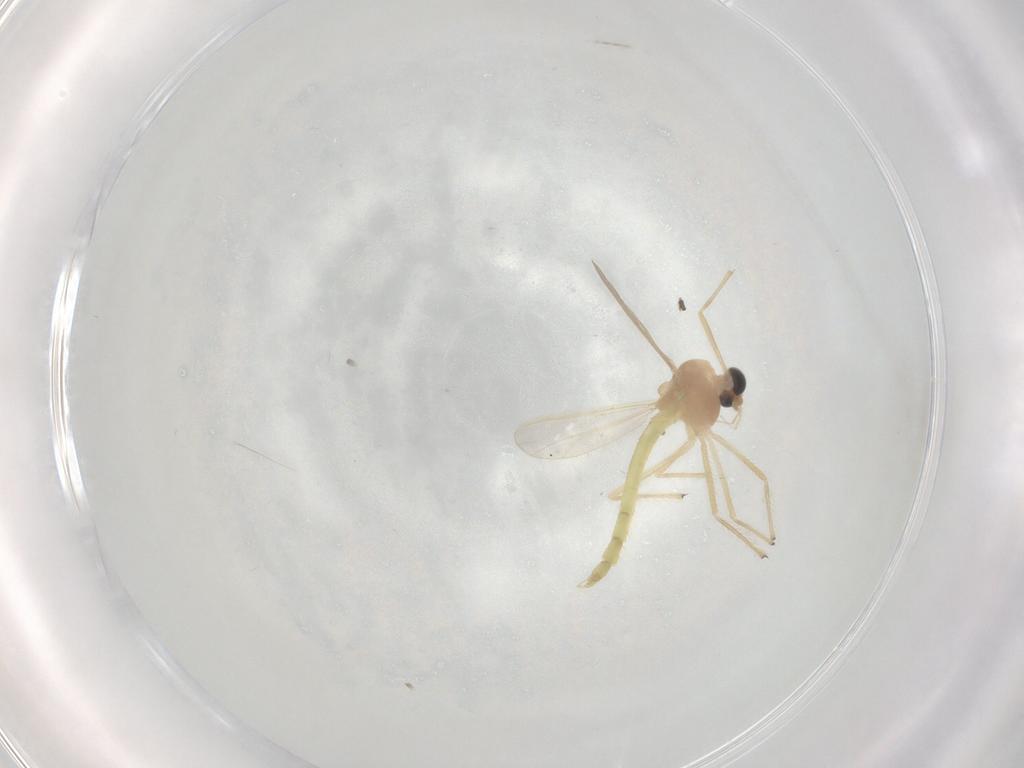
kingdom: Animalia
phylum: Arthropoda
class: Insecta
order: Diptera
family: Chironomidae
